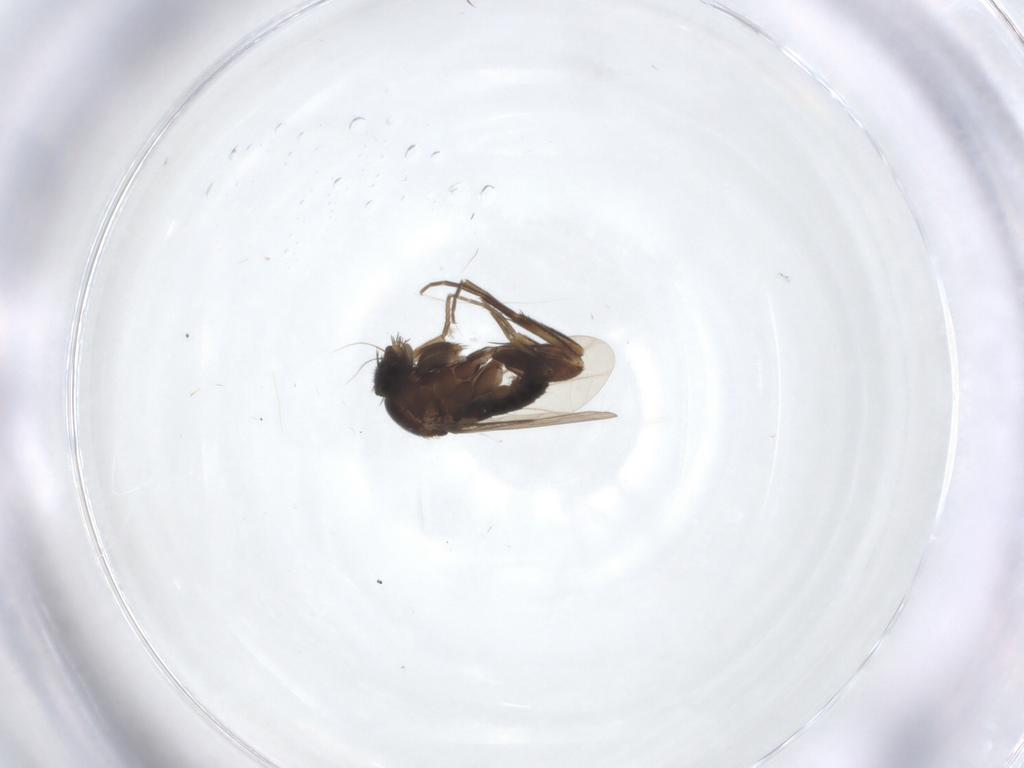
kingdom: Animalia
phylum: Arthropoda
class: Insecta
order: Diptera
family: Phoridae
